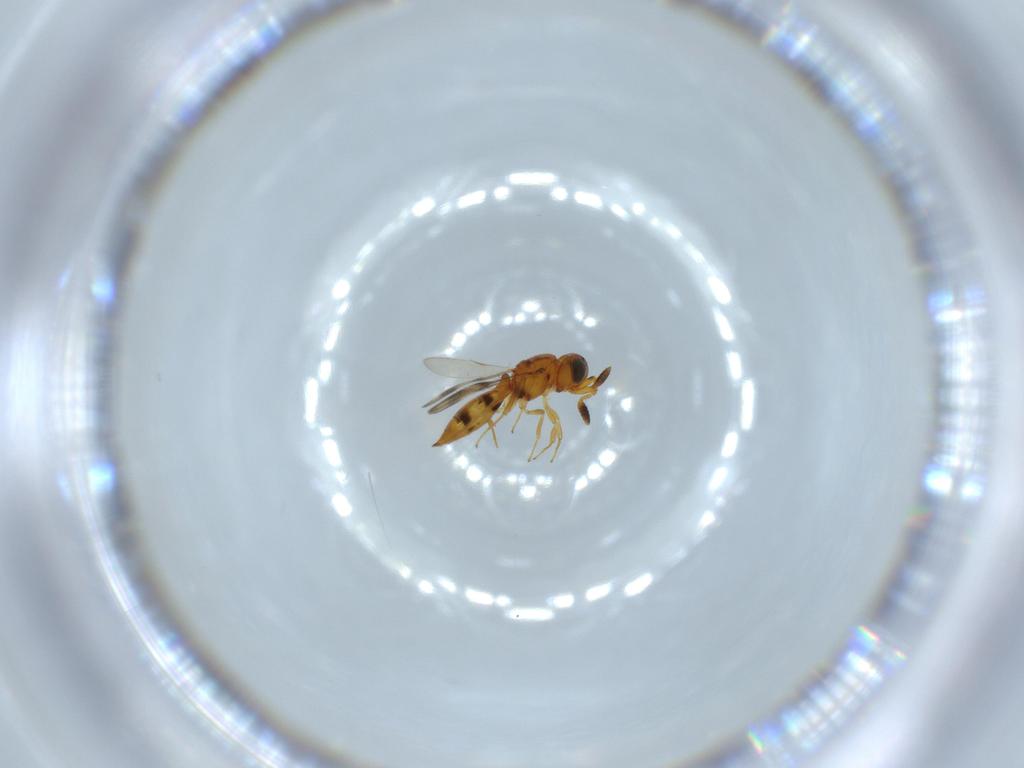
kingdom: Animalia
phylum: Arthropoda
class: Insecta
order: Hymenoptera
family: Scelionidae
